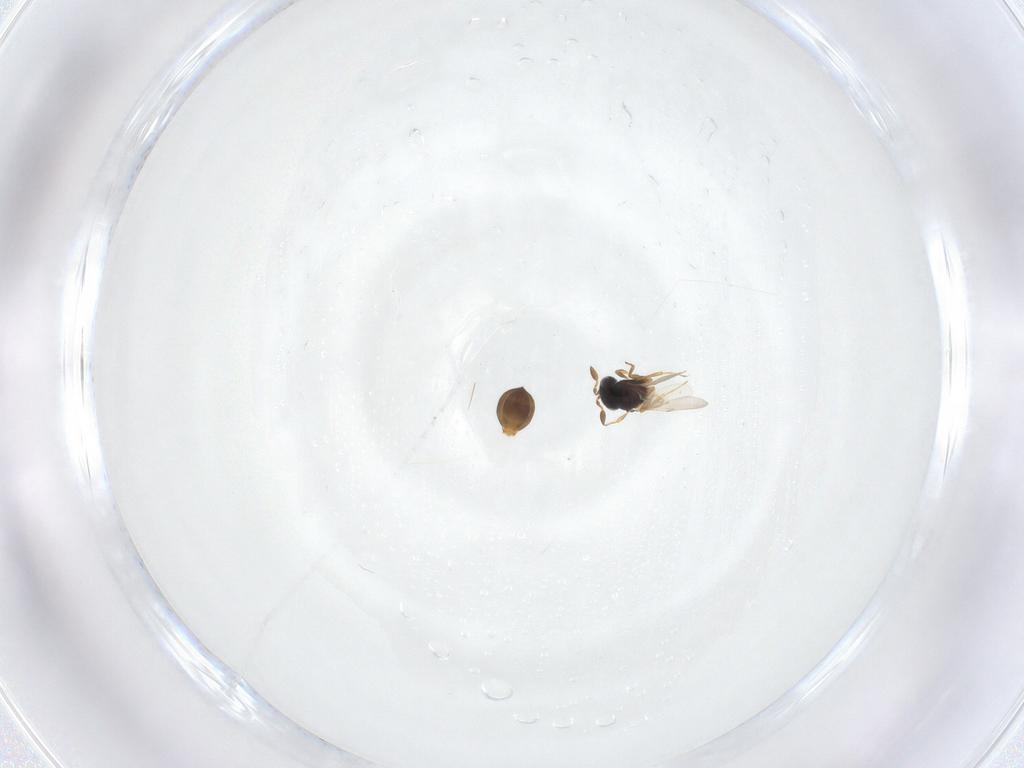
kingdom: Animalia
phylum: Arthropoda
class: Insecta
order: Hymenoptera
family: Scelionidae
